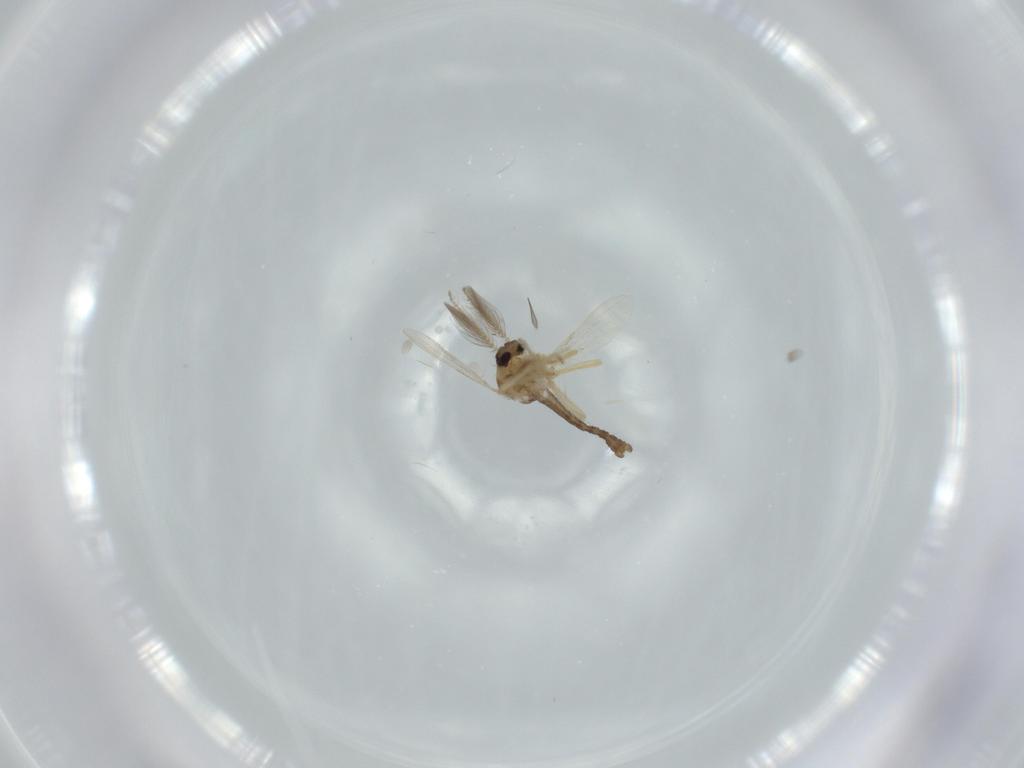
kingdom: Animalia
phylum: Arthropoda
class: Insecta
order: Diptera
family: Ceratopogonidae
